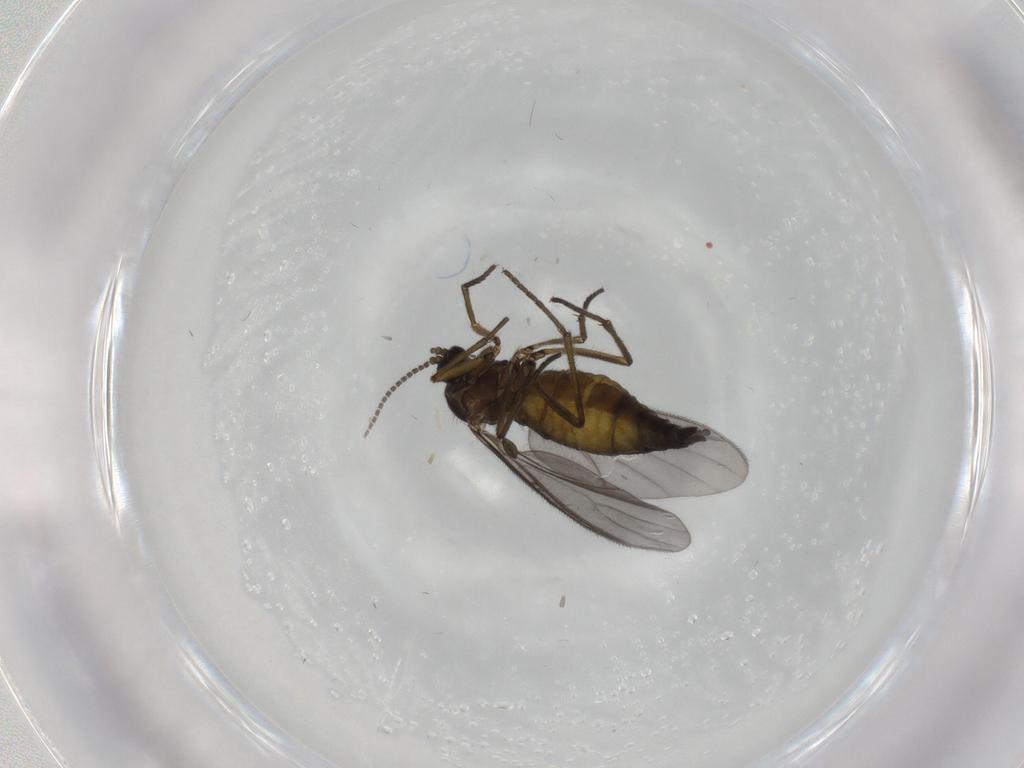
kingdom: Animalia
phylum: Arthropoda
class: Insecta
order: Diptera
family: Sciaridae
